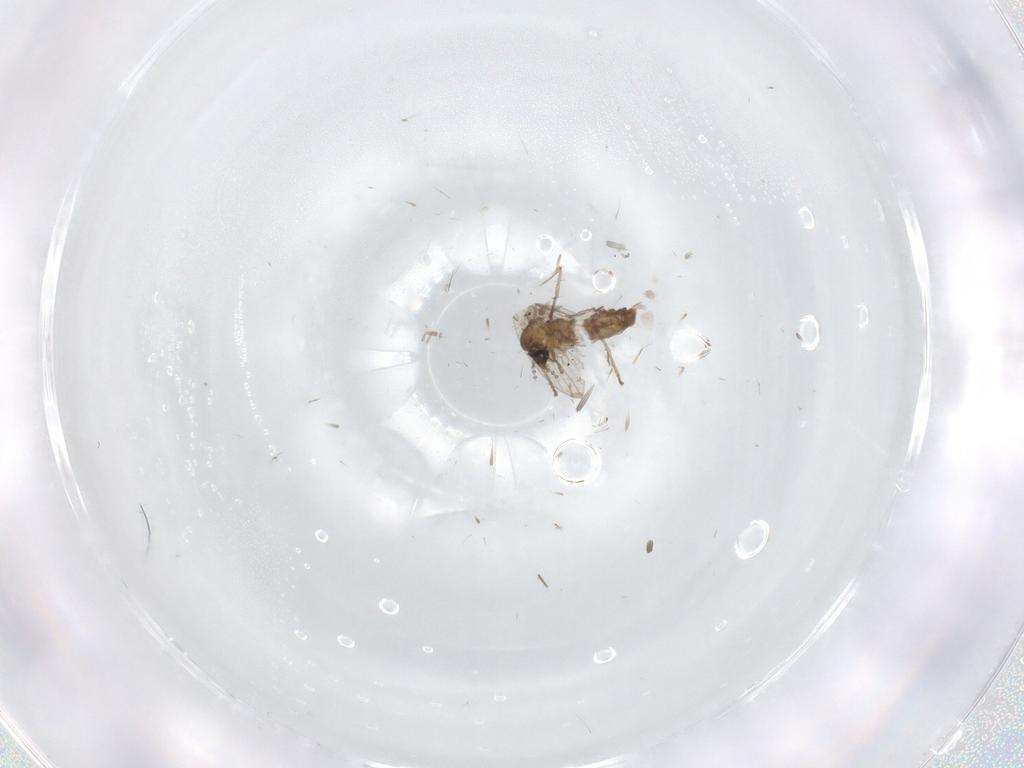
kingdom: Animalia
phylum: Arthropoda
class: Insecta
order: Diptera
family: Psychodidae
